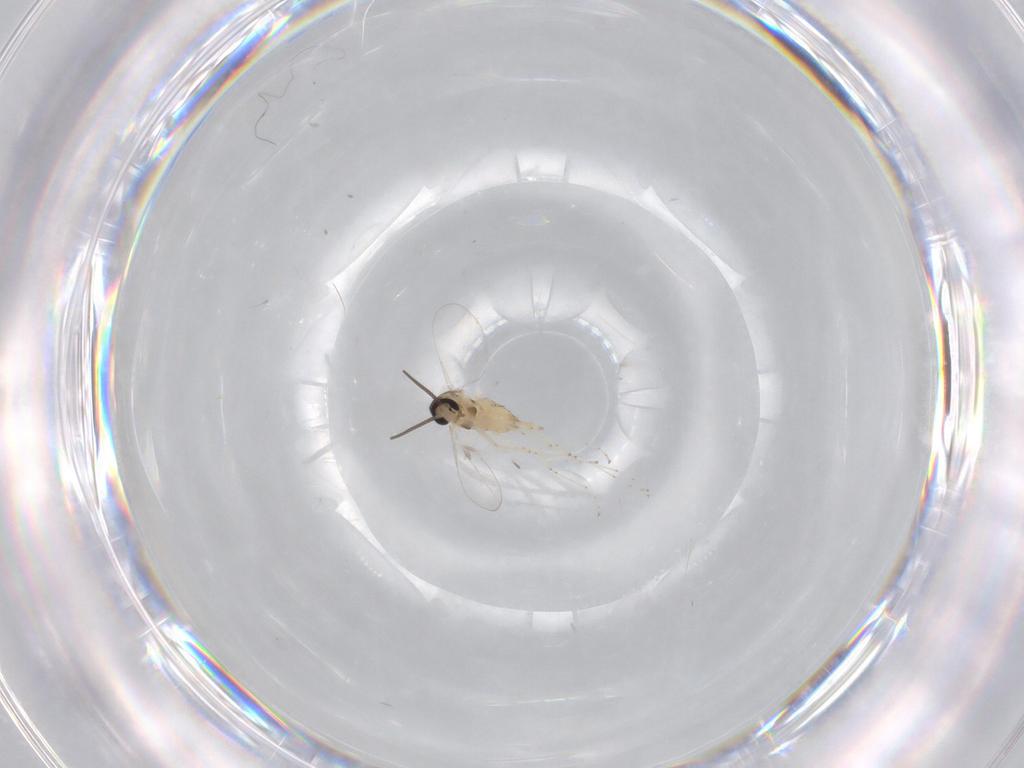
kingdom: Animalia
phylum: Arthropoda
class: Insecta
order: Diptera
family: Cecidomyiidae
